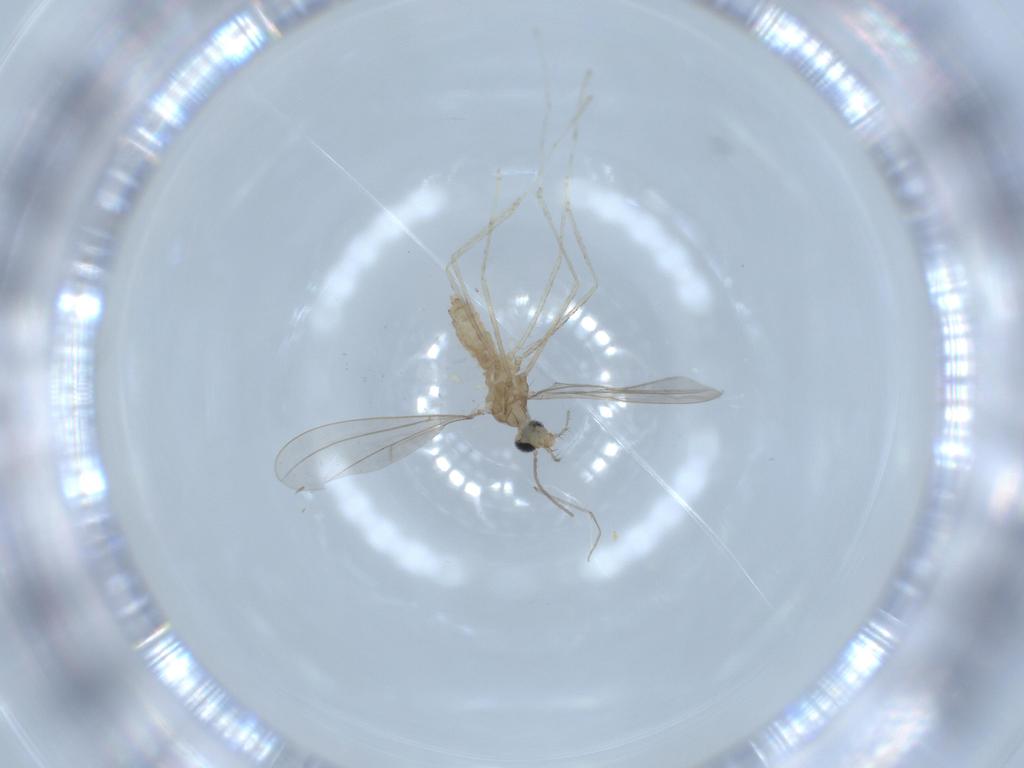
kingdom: Animalia
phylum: Arthropoda
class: Insecta
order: Diptera
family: Cecidomyiidae
